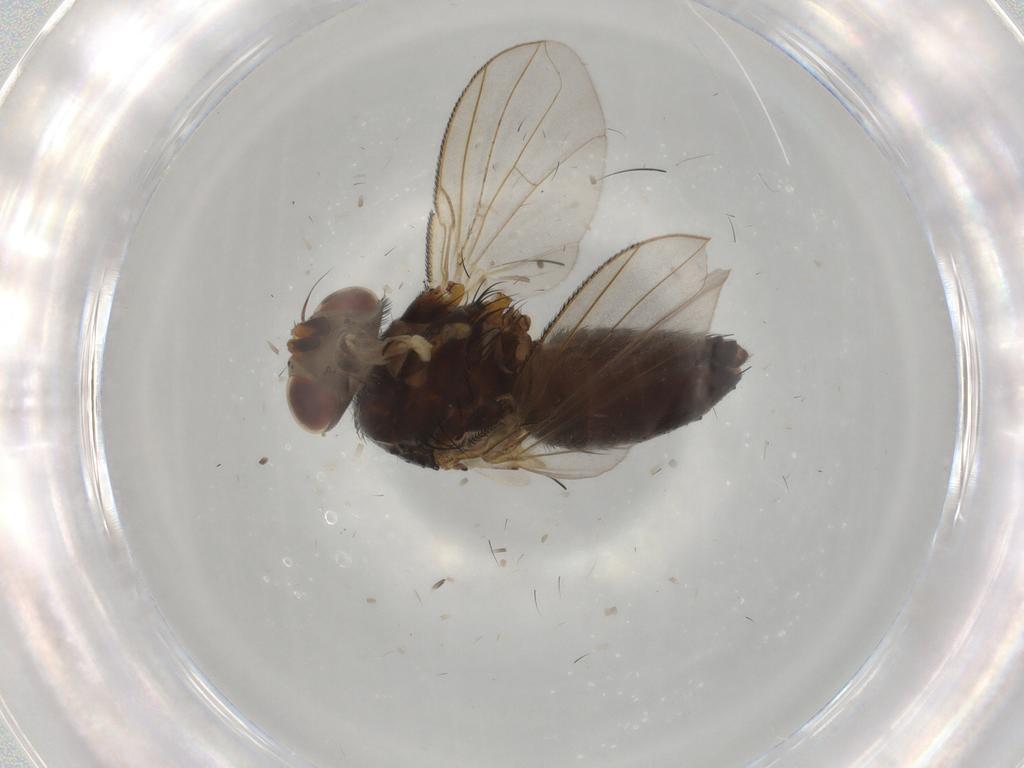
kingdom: Animalia
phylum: Arthropoda
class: Insecta
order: Diptera
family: Tachinidae
